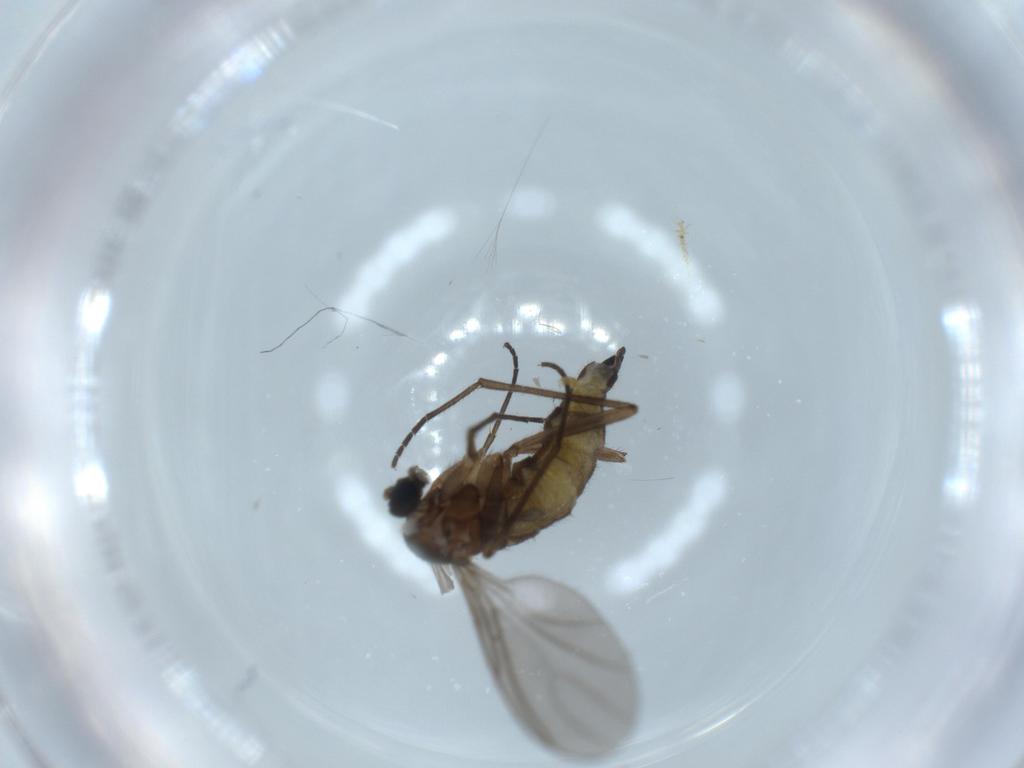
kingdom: Animalia
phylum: Arthropoda
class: Insecta
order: Diptera
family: Sciaridae
